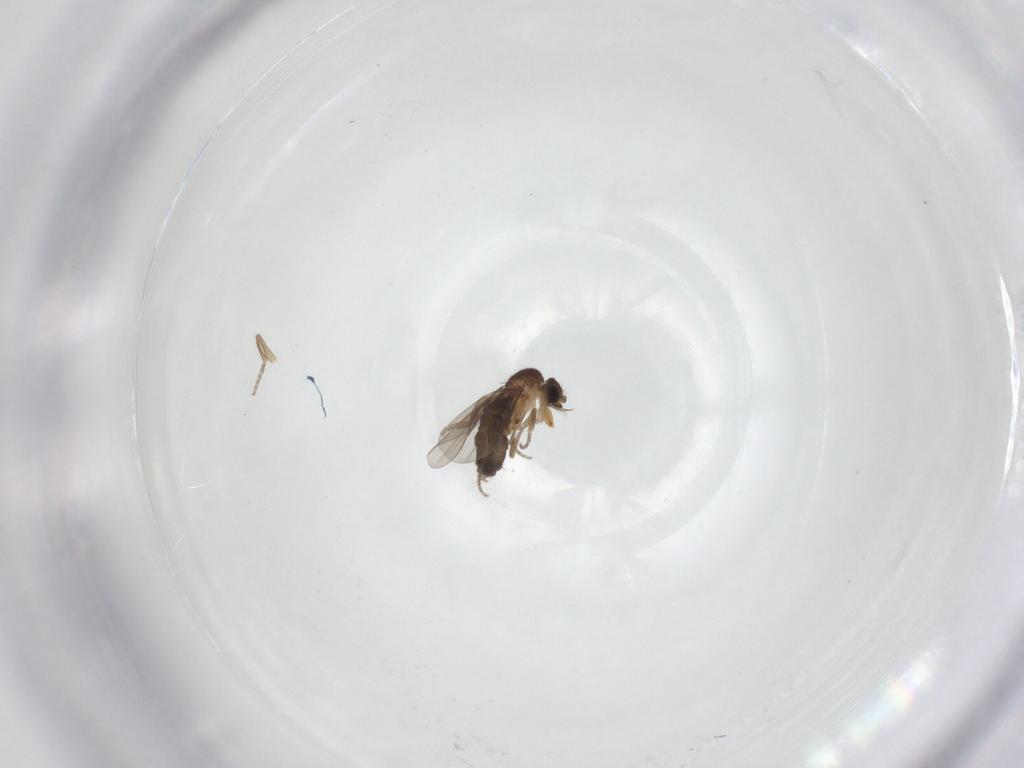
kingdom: Animalia
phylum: Arthropoda
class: Insecta
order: Diptera
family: Phoridae
